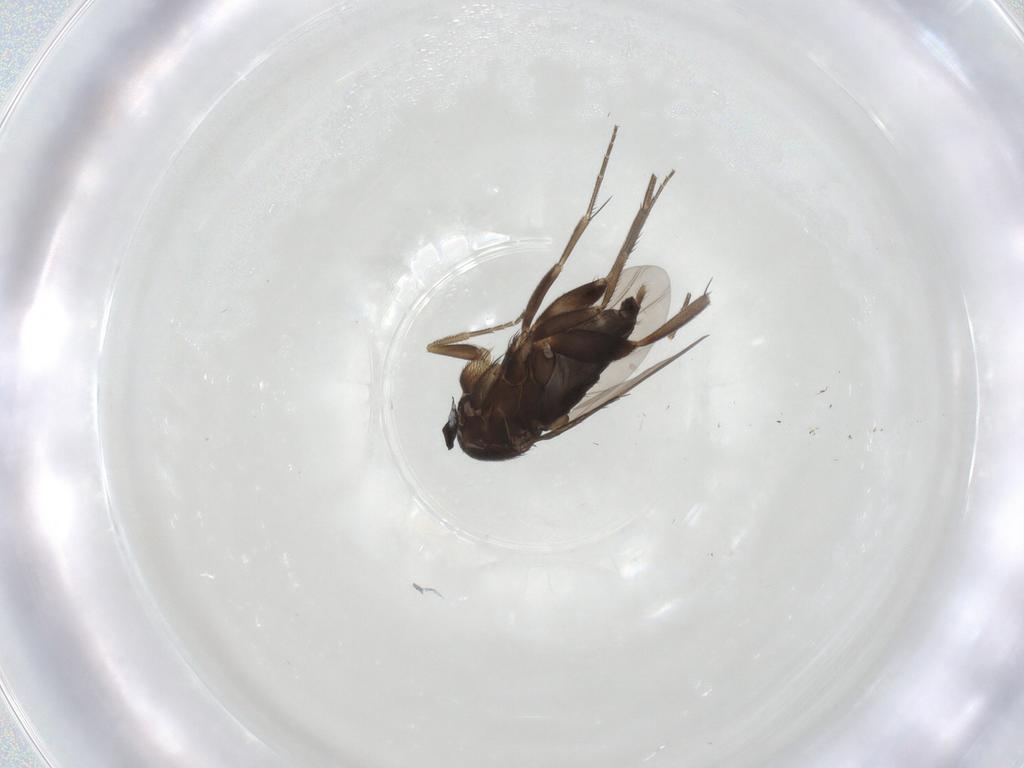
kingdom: Animalia
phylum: Arthropoda
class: Insecta
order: Diptera
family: Phoridae
